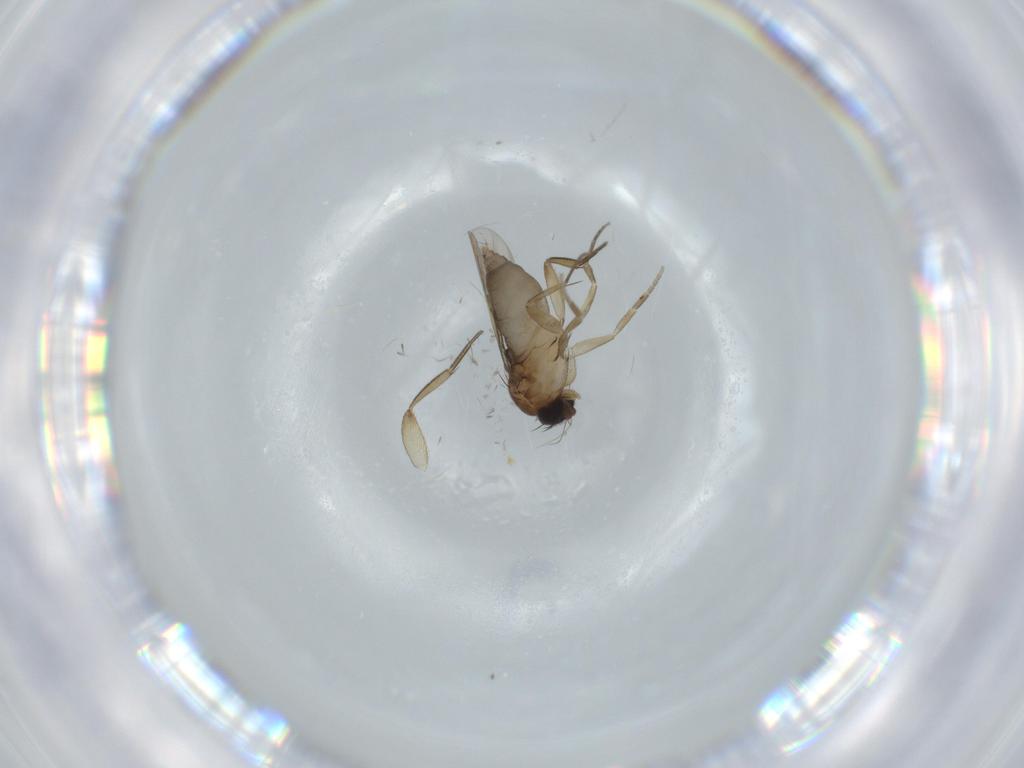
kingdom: Animalia
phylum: Arthropoda
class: Insecta
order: Diptera
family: Phoridae
